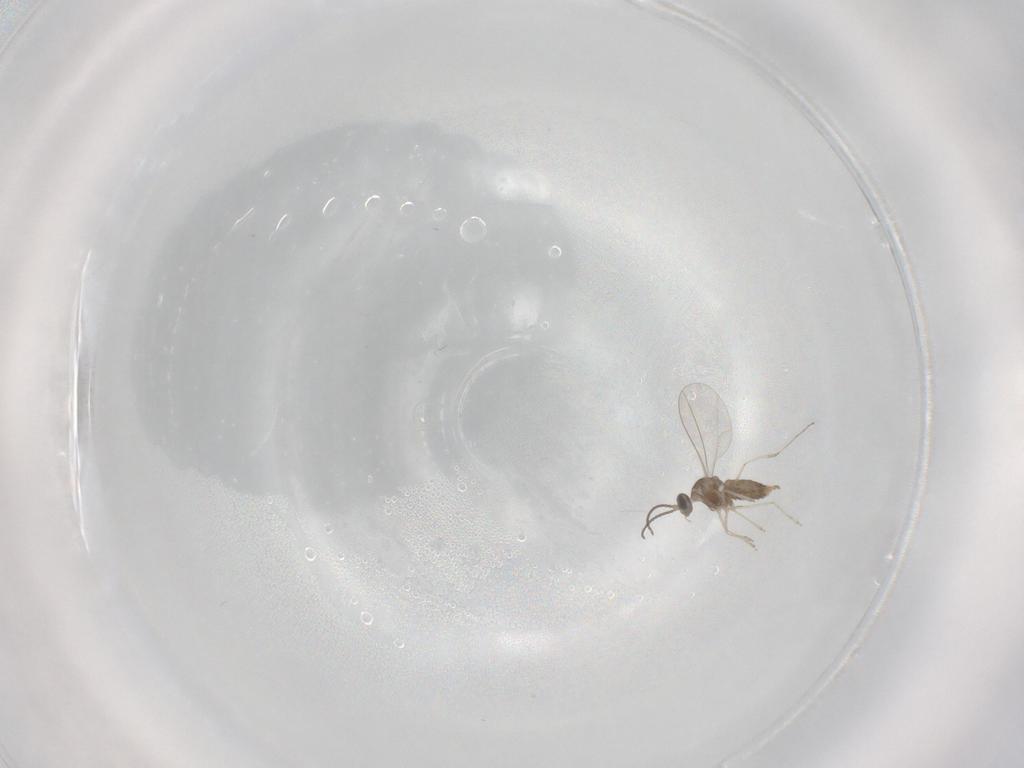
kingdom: Animalia
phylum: Arthropoda
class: Insecta
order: Diptera
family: Cecidomyiidae
